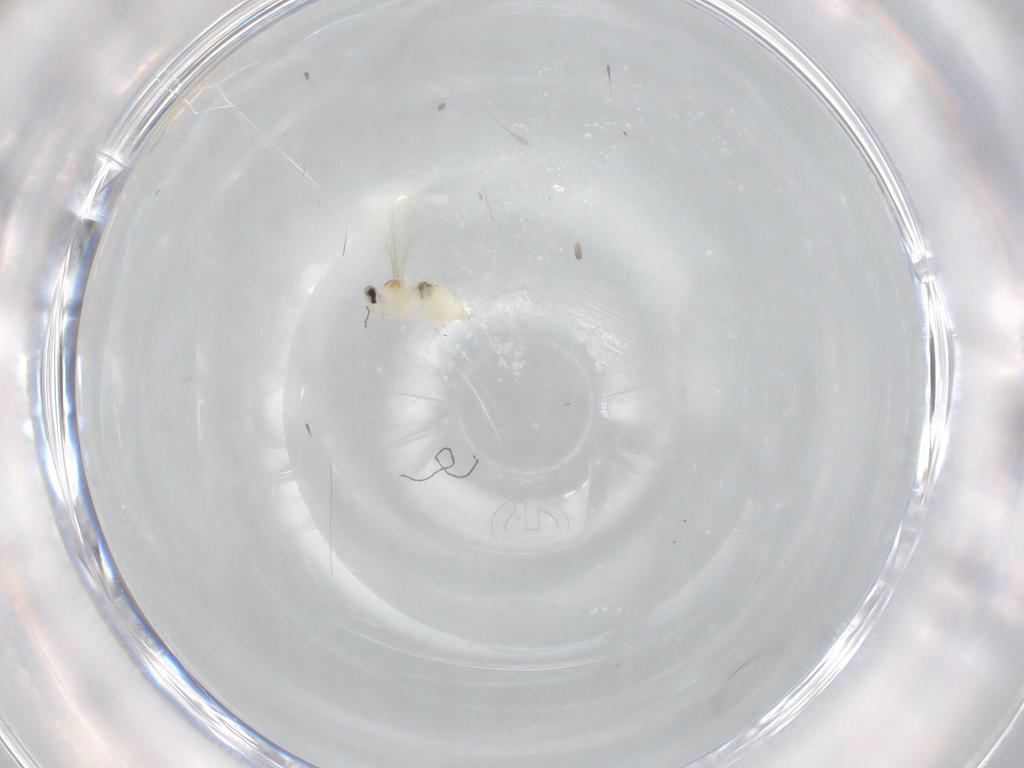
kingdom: Animalia
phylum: Arthropoda
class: Insecta
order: Diptera
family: Cecidomyiidae
